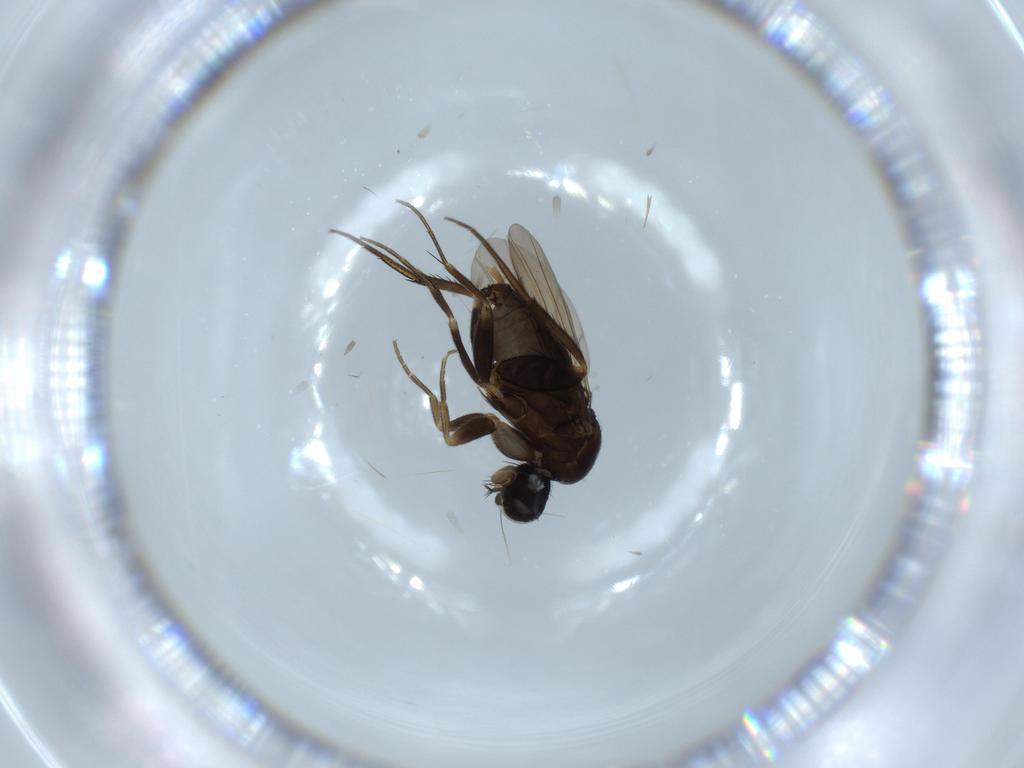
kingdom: Animalia
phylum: Arthropoda
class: Insecta
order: Diptera
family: Phoridae
